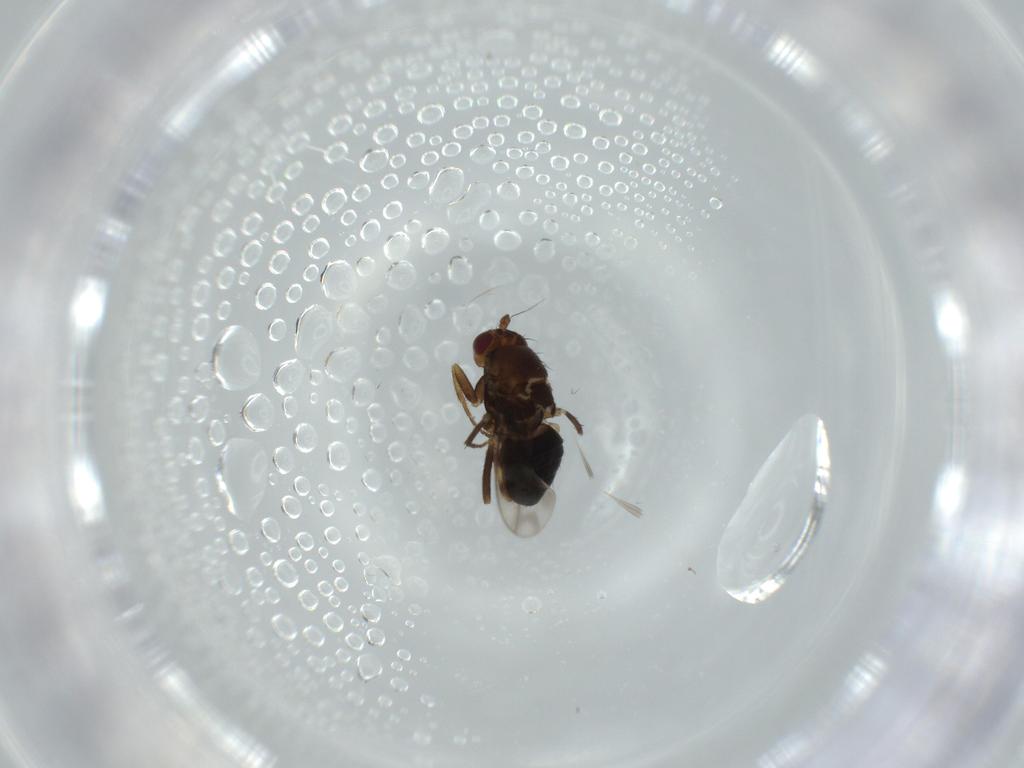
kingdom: Animalia
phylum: Arthropoda
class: Insecta
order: Diptera
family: Sphaeroceridae
